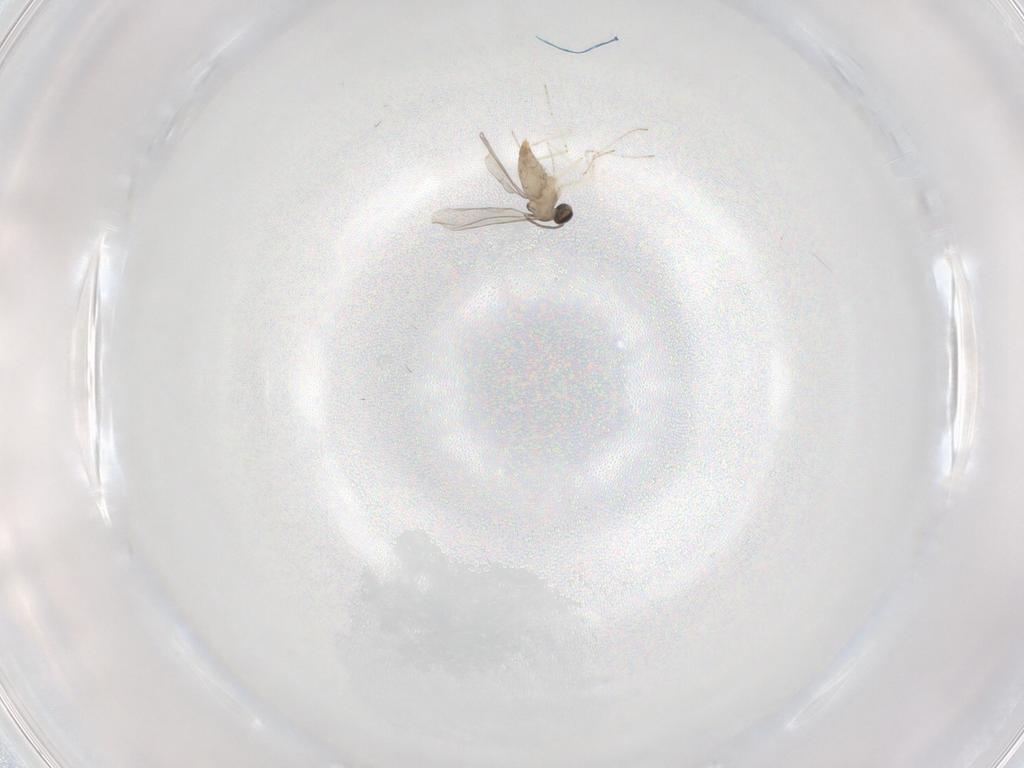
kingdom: Animalia
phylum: Arthropoda
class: Insecta
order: Diptera
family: Cecidomyiidae
